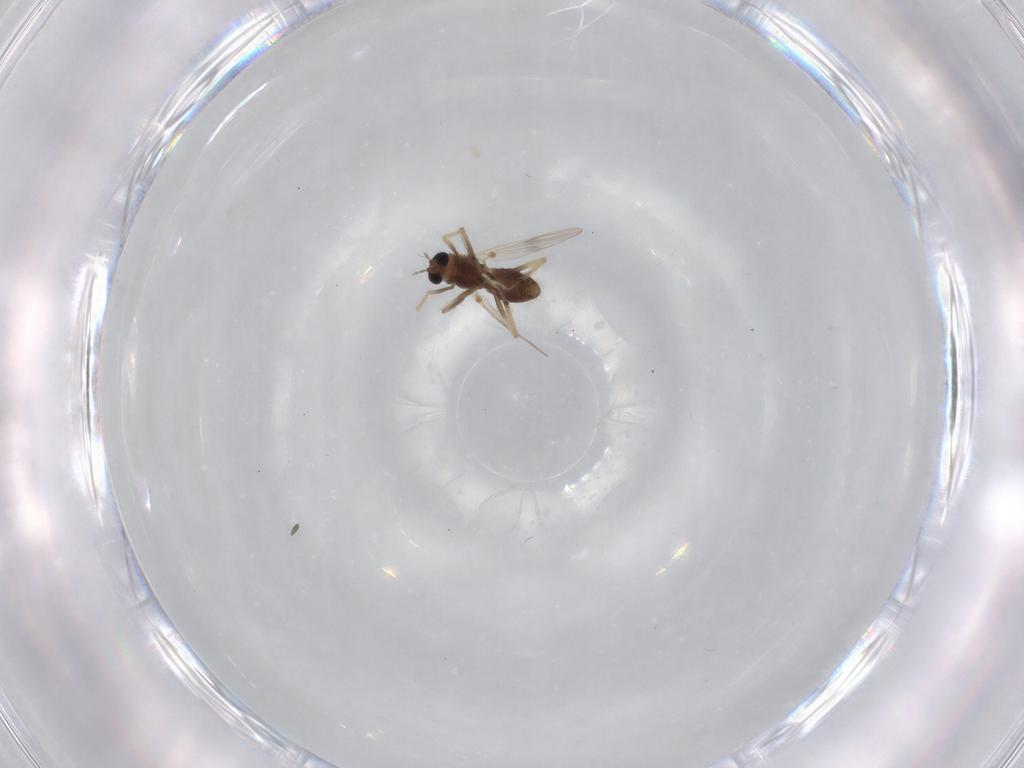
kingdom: Animalia
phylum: Arthropoda
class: Insecta
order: Diptera
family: Chironomidae
